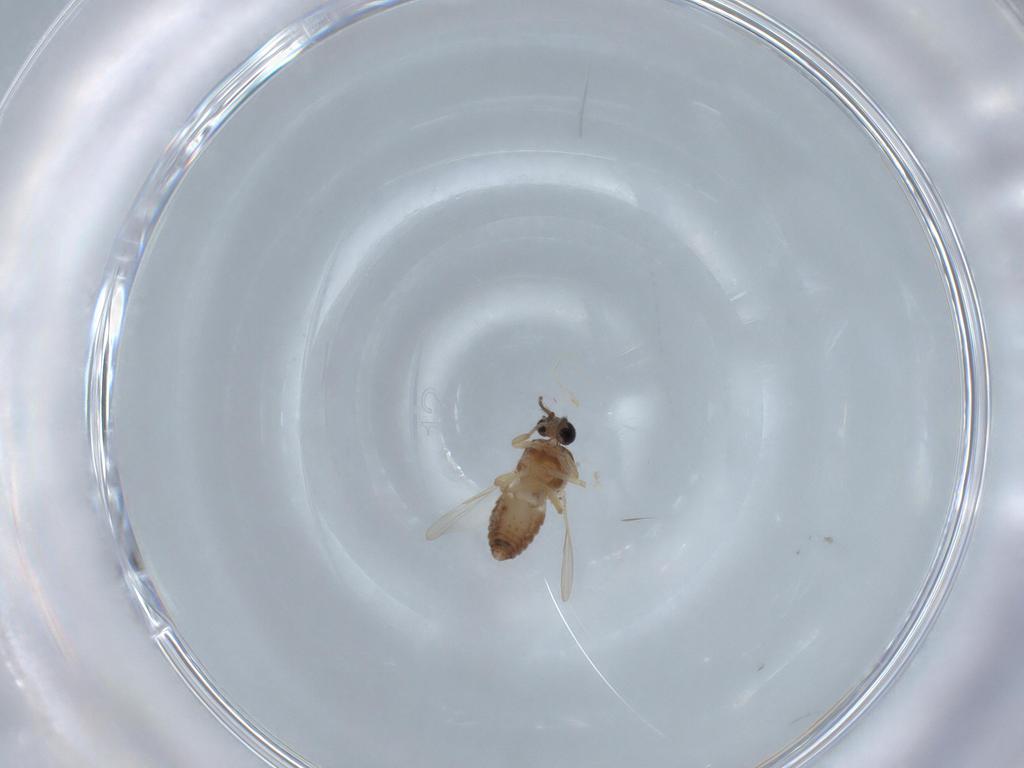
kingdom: Animalia
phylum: Arthropoda
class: Insecta
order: Diptera
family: Ceratopogonidae
